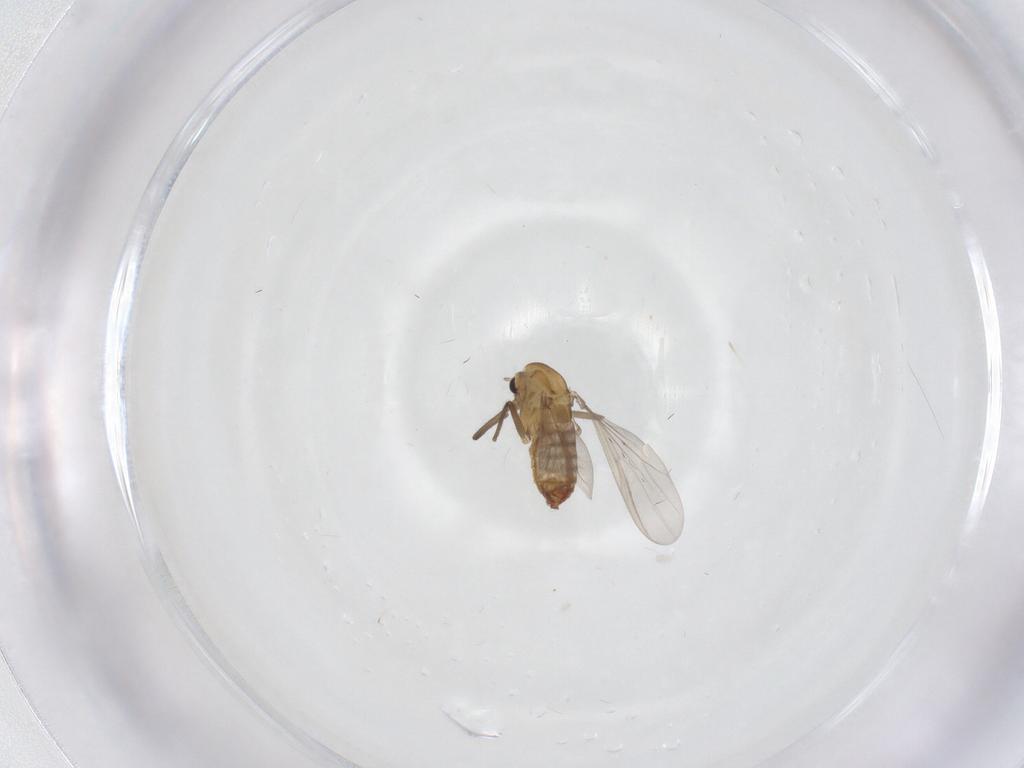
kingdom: Animalia
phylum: Arthropoda
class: Insecta
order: Diptera
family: Chironomidae
